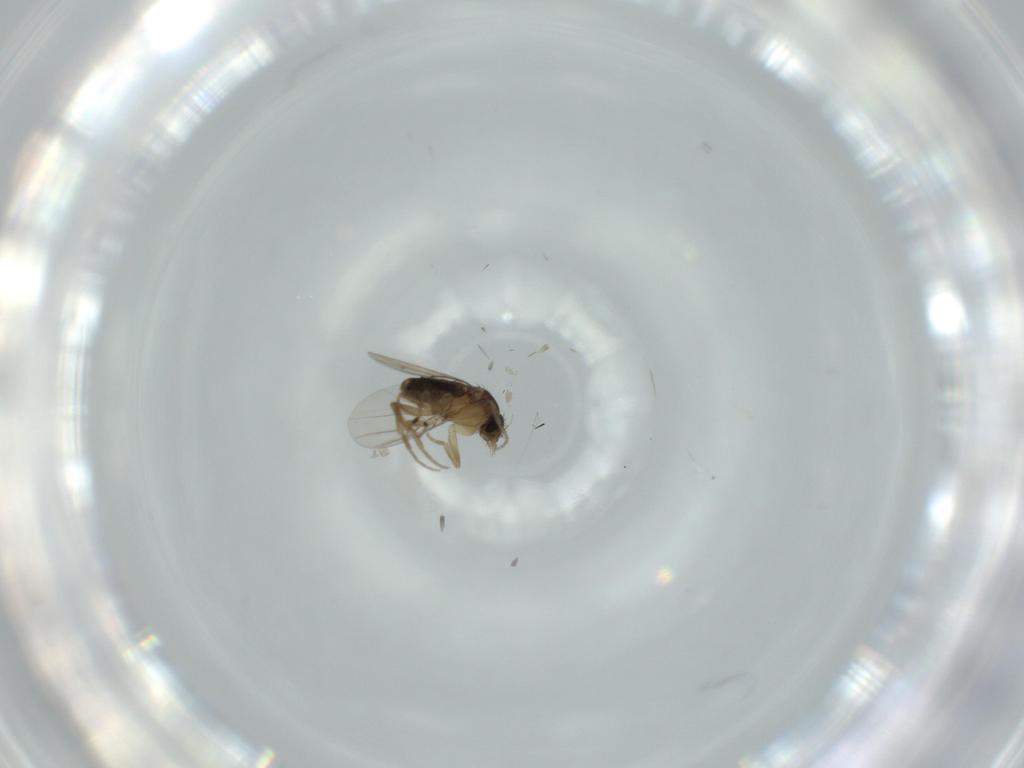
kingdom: Animalia
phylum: Arthropoda
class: Insecta
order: Diptera
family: Phoridae
